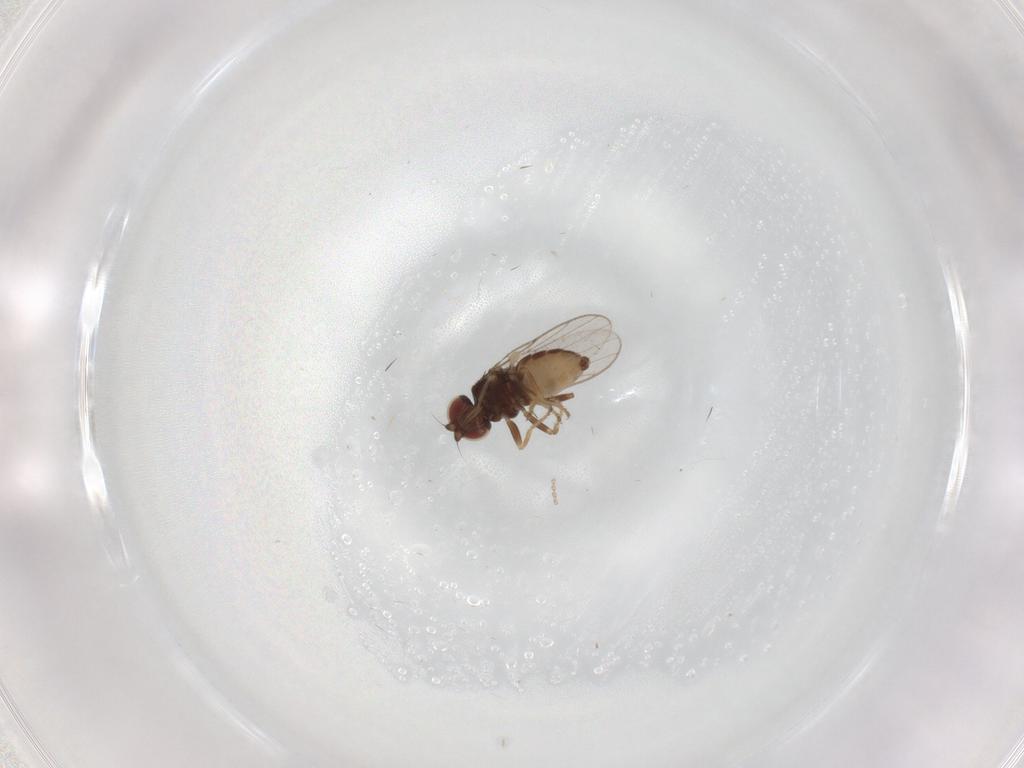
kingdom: Animalia
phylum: Arthropoda
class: Insecta
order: Diptera
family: Chloropidae
